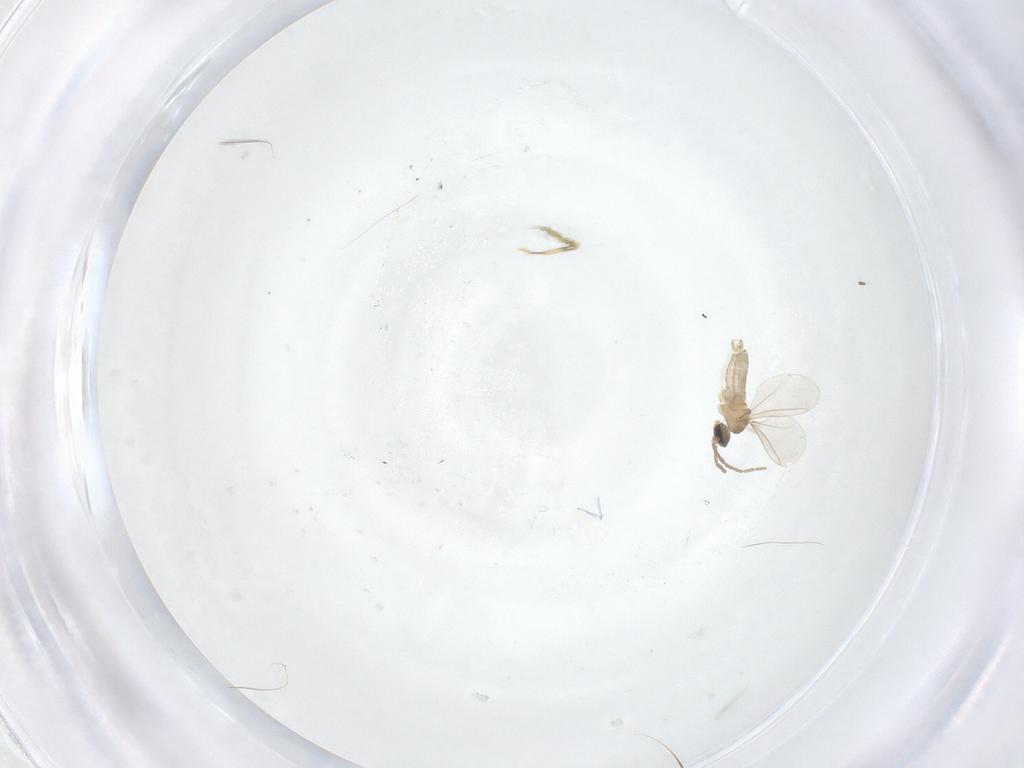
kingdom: Animalia
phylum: Arthropoda
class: Insecta
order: Diptera
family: Cecidomyiidae
